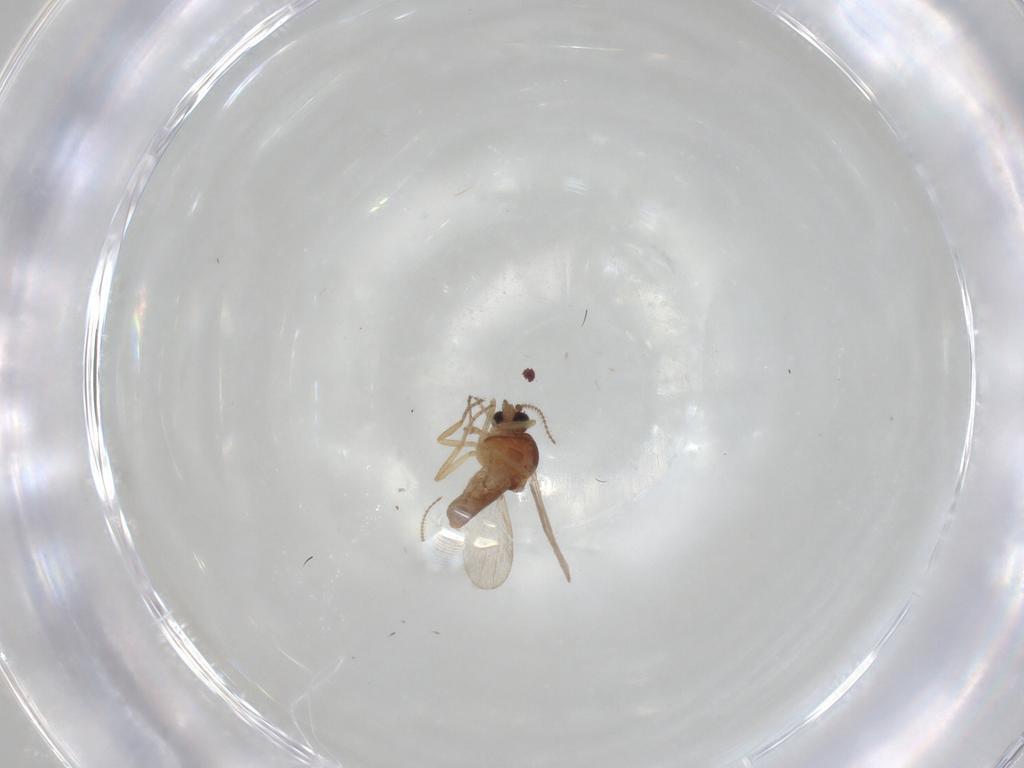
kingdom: Animalia
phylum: Arthropoda
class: Insecta
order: Diptera
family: Ceratopogonidae
